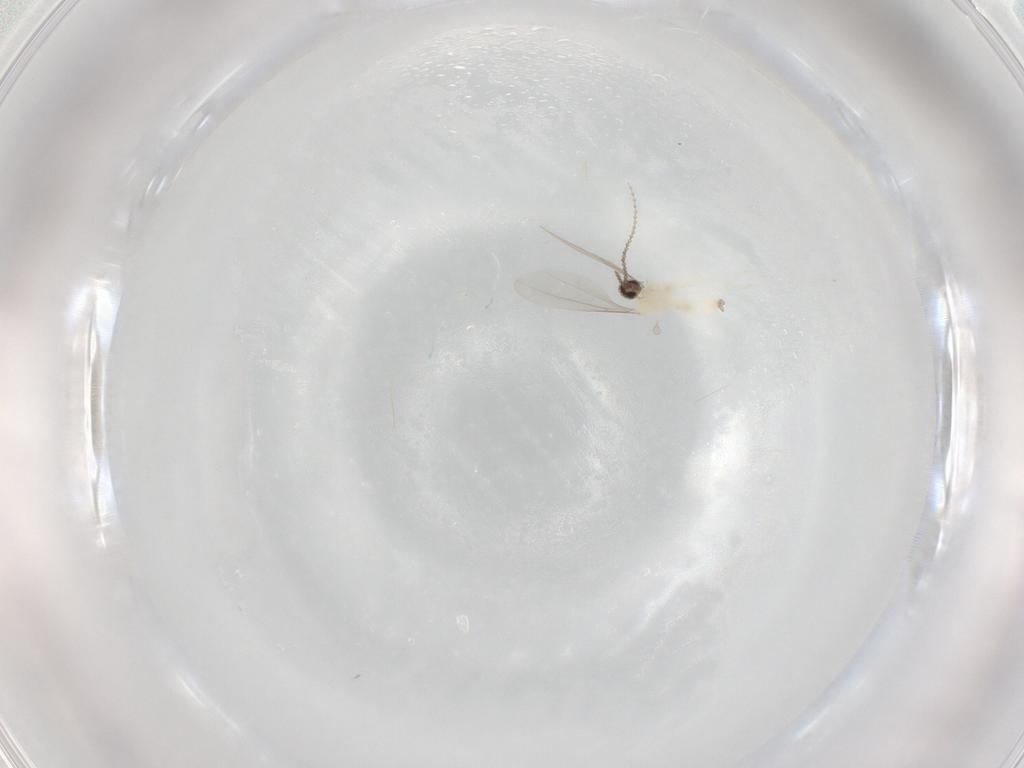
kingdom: Animalia
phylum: Arthropoda
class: Insecta
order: Diptera
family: Cecidomyiidae
